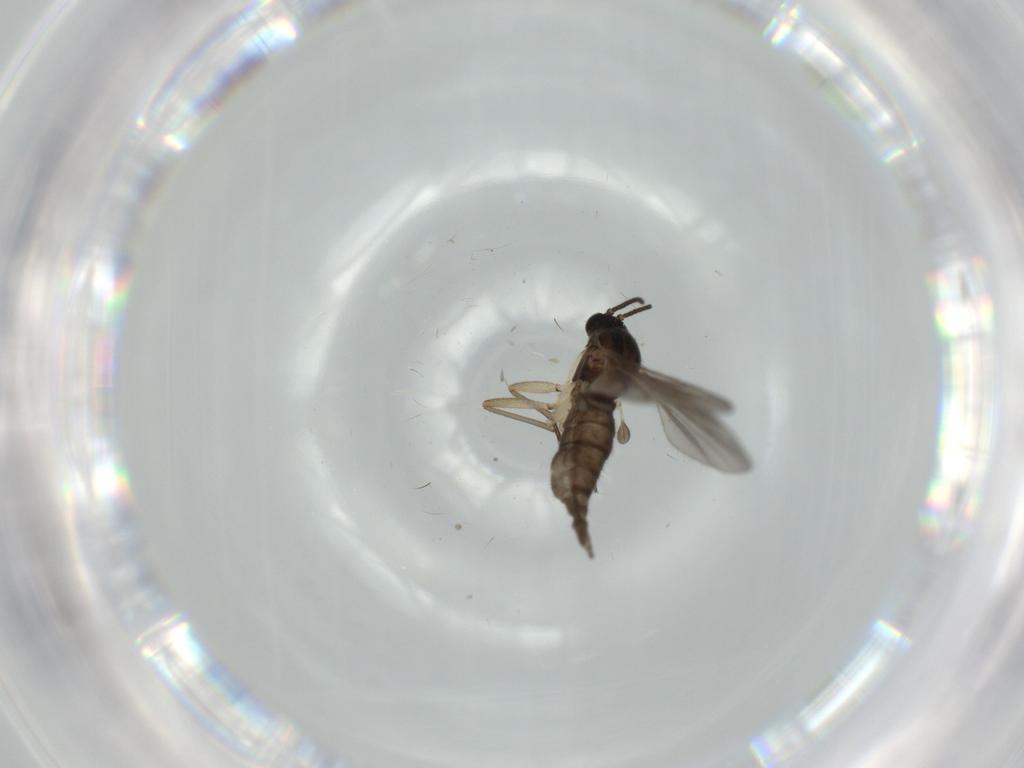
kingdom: Animalia
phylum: Arthropoda
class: Insecta
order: Diptera
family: Sciaridae
